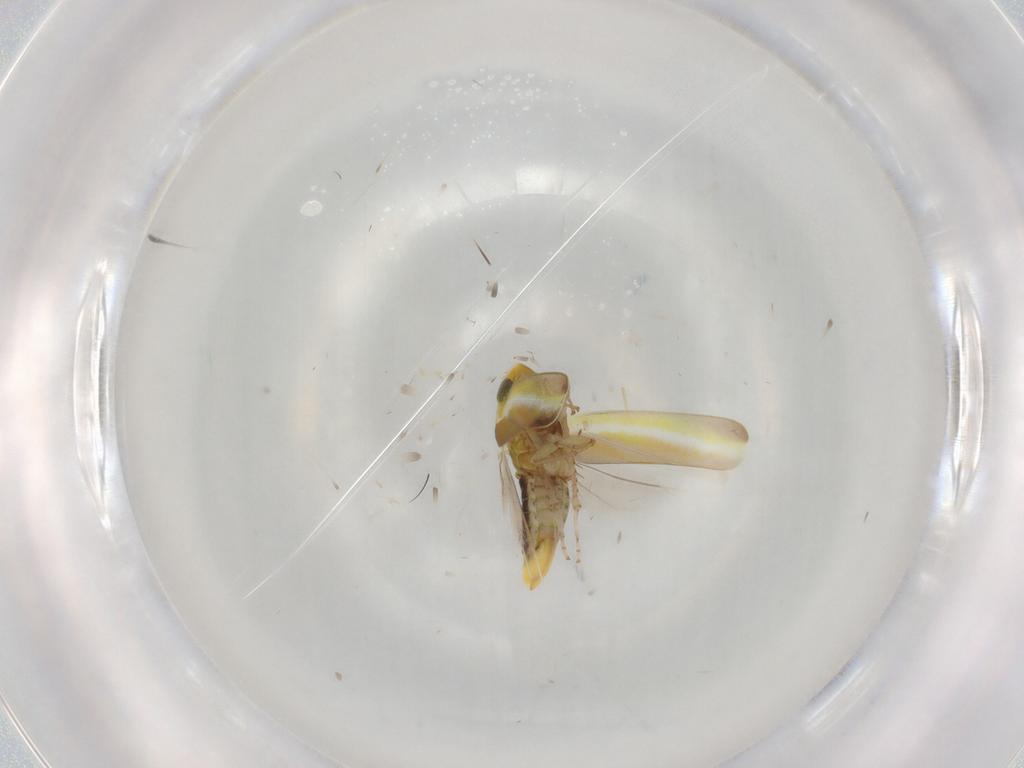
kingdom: Animalia
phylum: Arthropoda
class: Insecta
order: Hemiptera
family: Cicadellidae
